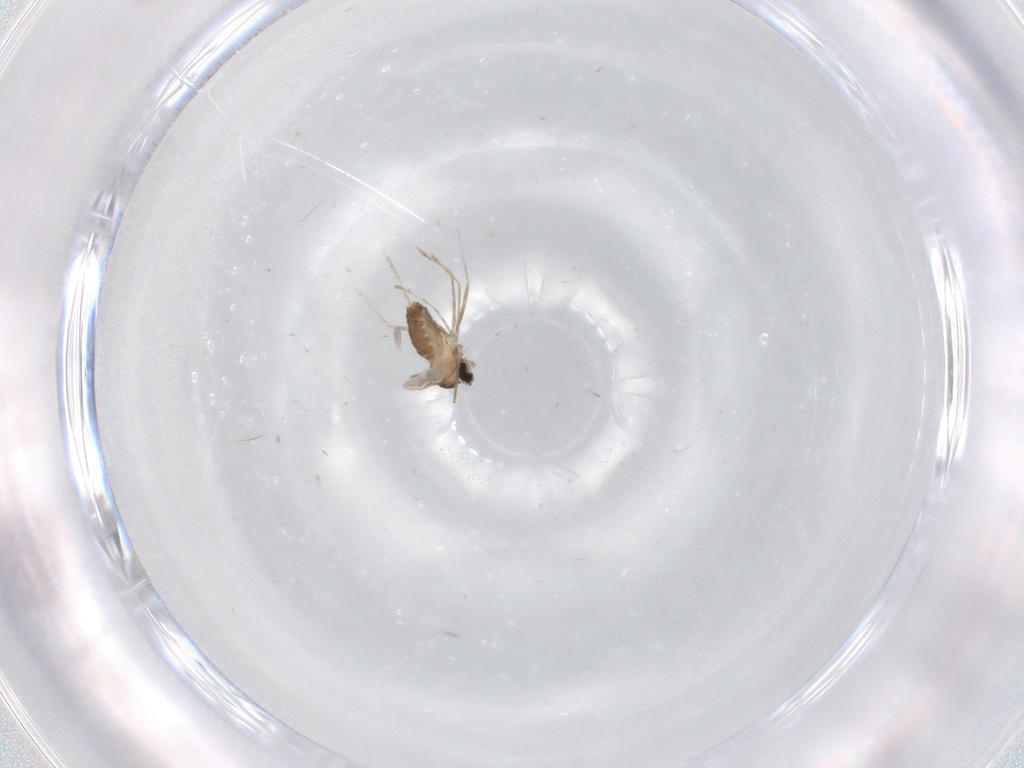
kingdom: Animalia
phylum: Arthropoda
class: Insecta
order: Diptera
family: Cecidomyiidae
